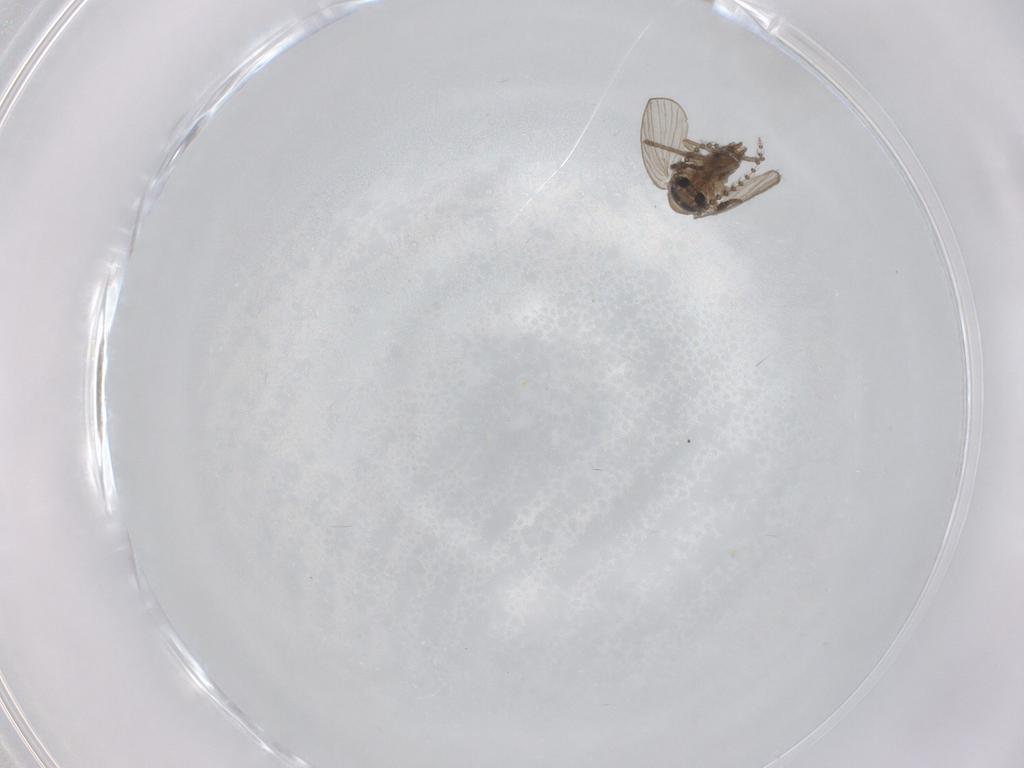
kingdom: Animalia
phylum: Arthropoda
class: Insecta
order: Diptera
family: Psychodidae
